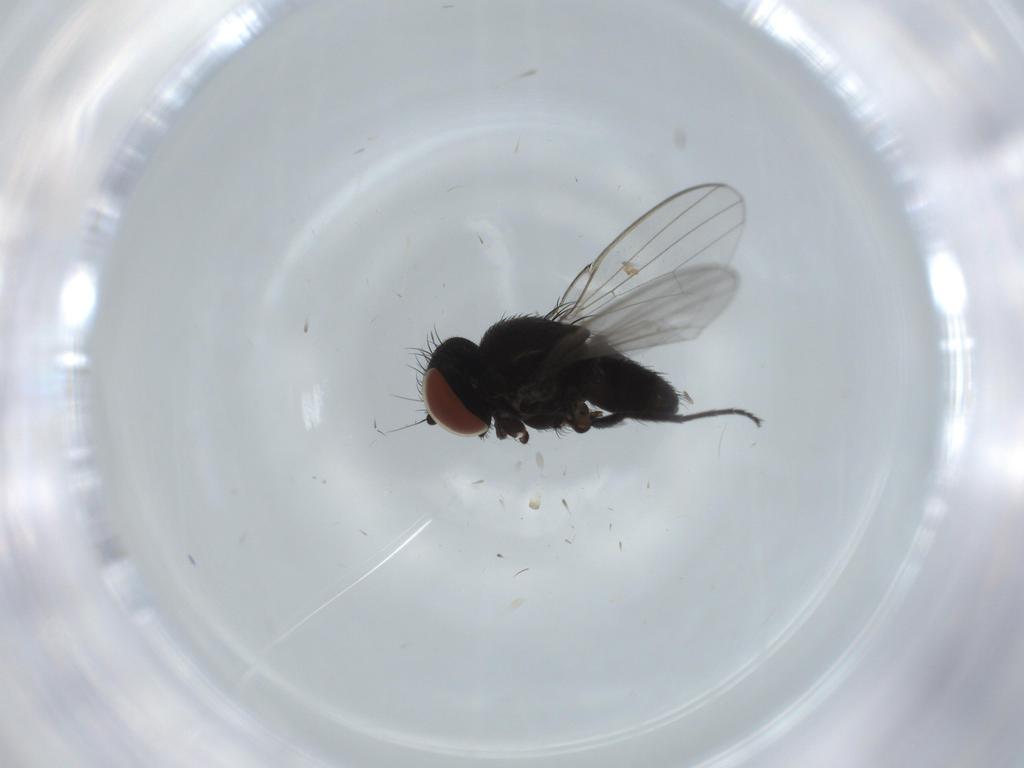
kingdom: Animalia
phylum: Arthropoda
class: Insecta
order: Diptera
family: Milichiidae
